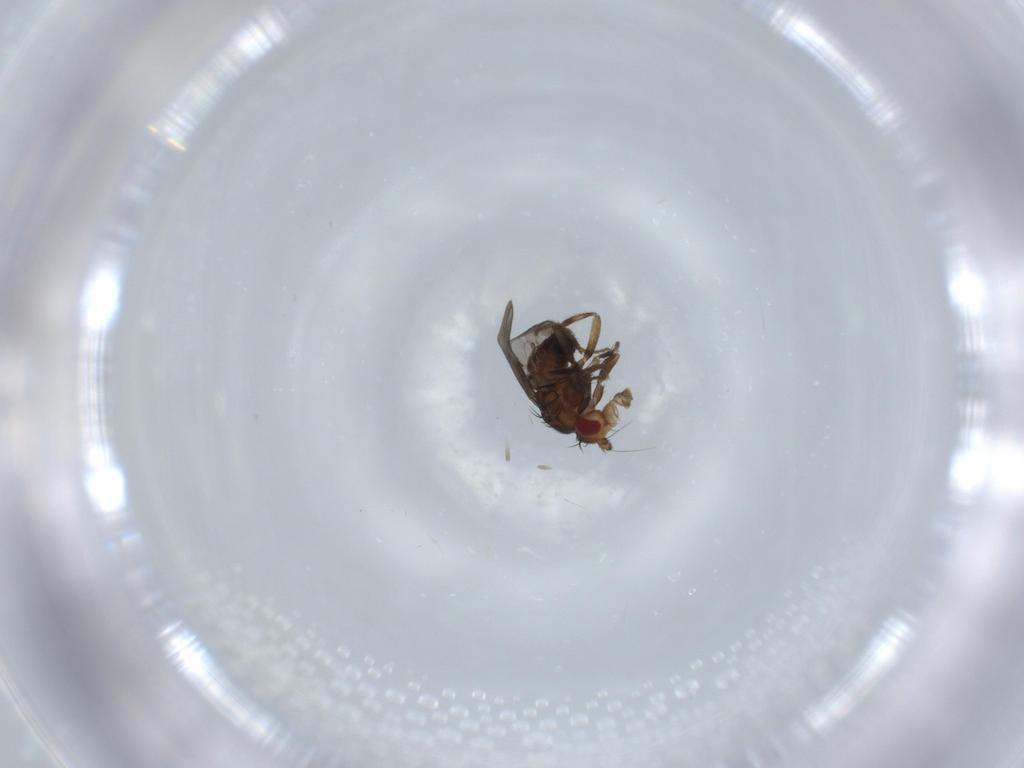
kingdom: Animalia
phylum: Arthropoda
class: Insecta
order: Diptera
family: Sphaeroceridae
